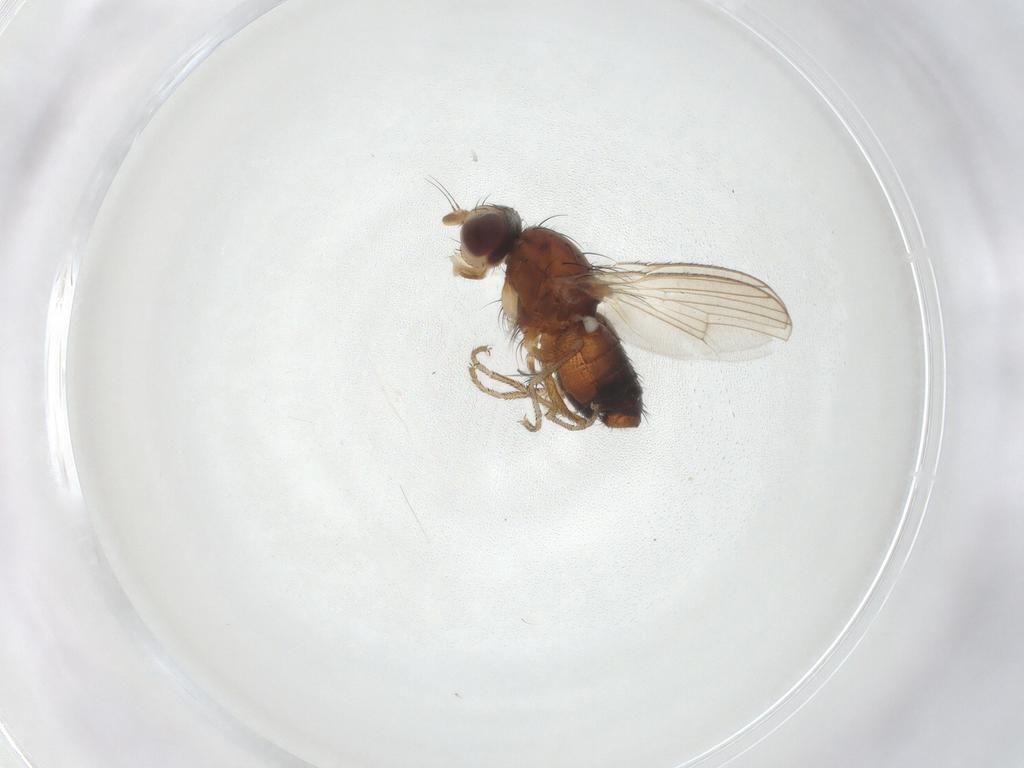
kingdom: Animalia
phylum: Arthropoda
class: Insecta
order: Diptera
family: Heleomyzidae
